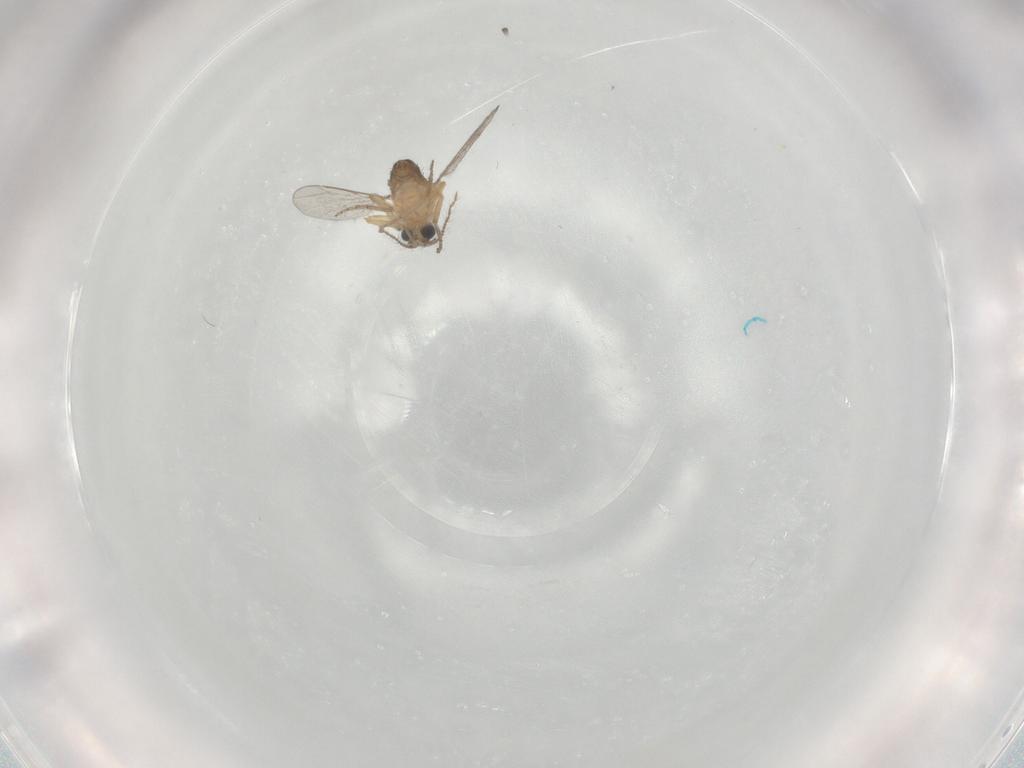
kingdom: Animalia
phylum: Arthropoda
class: Insecta
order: Diptera
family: Ceratopogonidae
